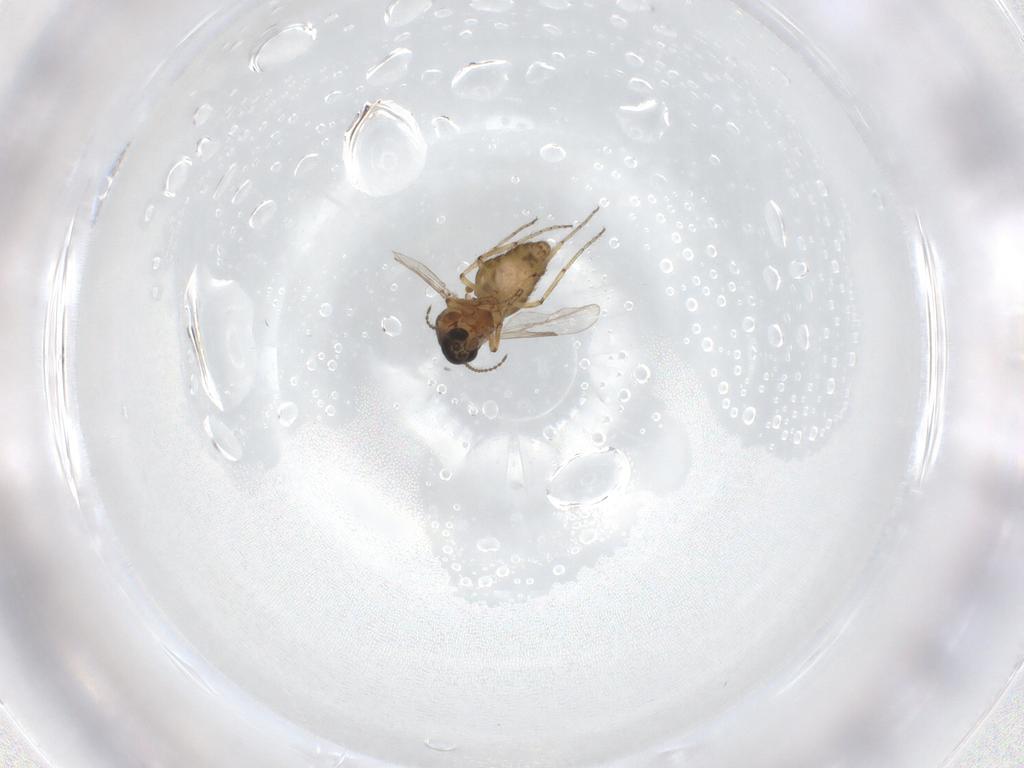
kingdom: Animalia
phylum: Arthropoda
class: Insecta
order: Diptera
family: Ceratopogonidae
